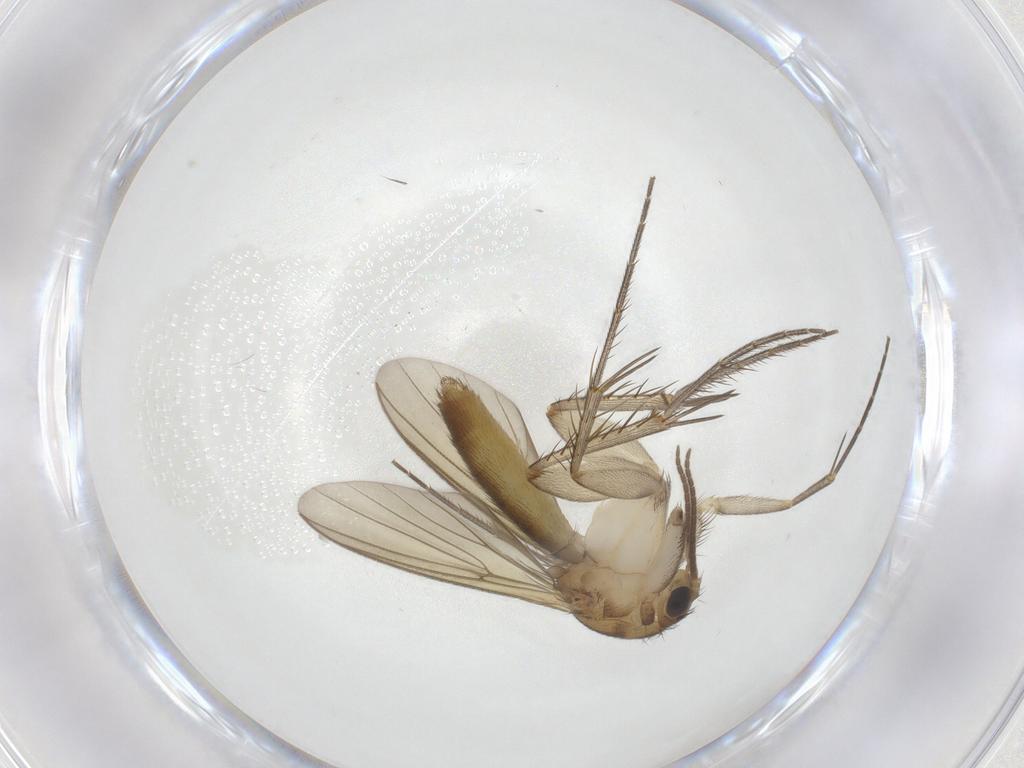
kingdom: Animalia
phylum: Arthropoda
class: Insecta
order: Diptera
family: Mycetophilidae
